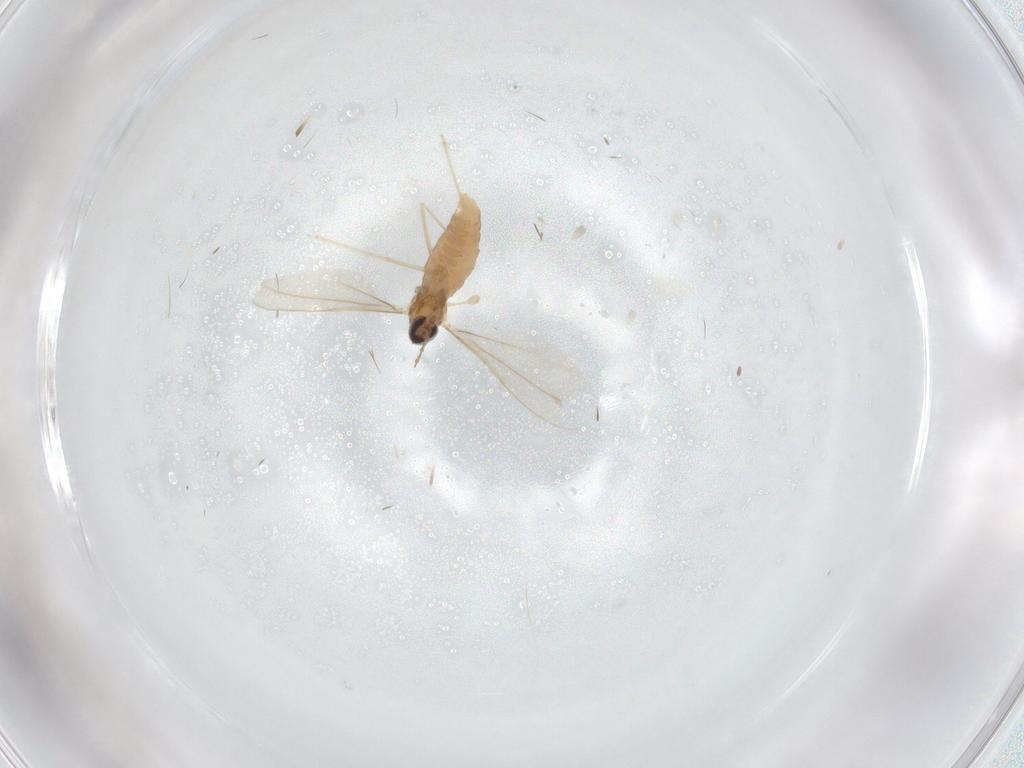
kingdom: Animalia
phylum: Arthropoda
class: Insecta
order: Diptera
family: Cecidomyiidae
